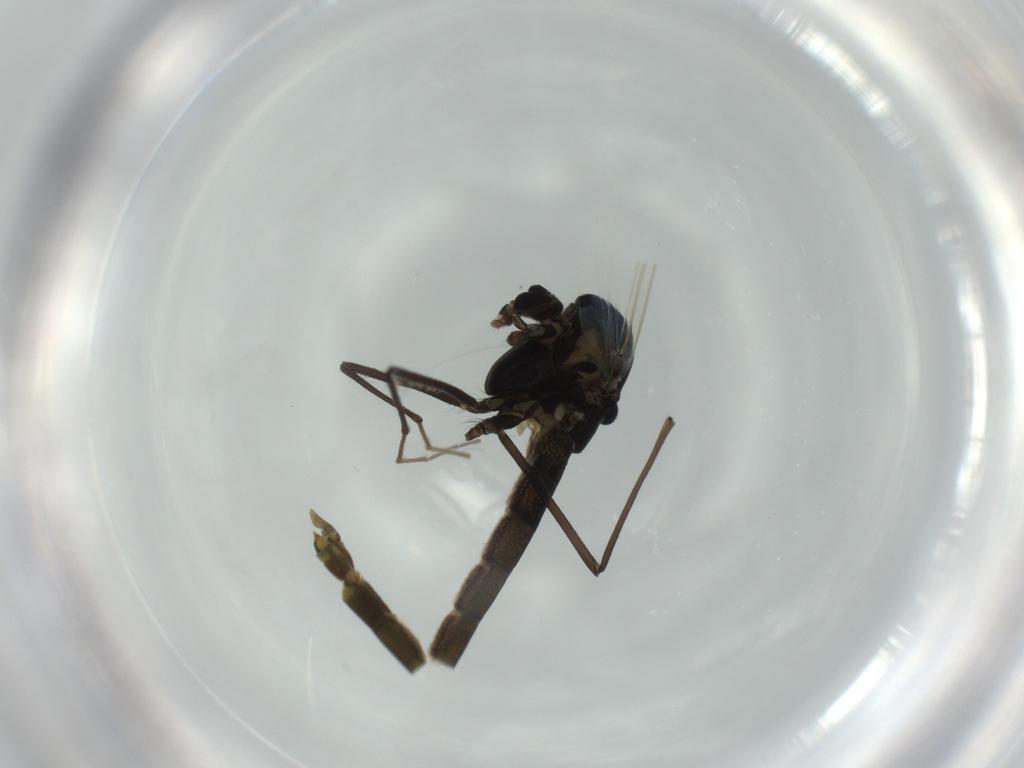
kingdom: Animalia
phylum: Arthropoda
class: Insecta
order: Diptera
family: Chironomidae
